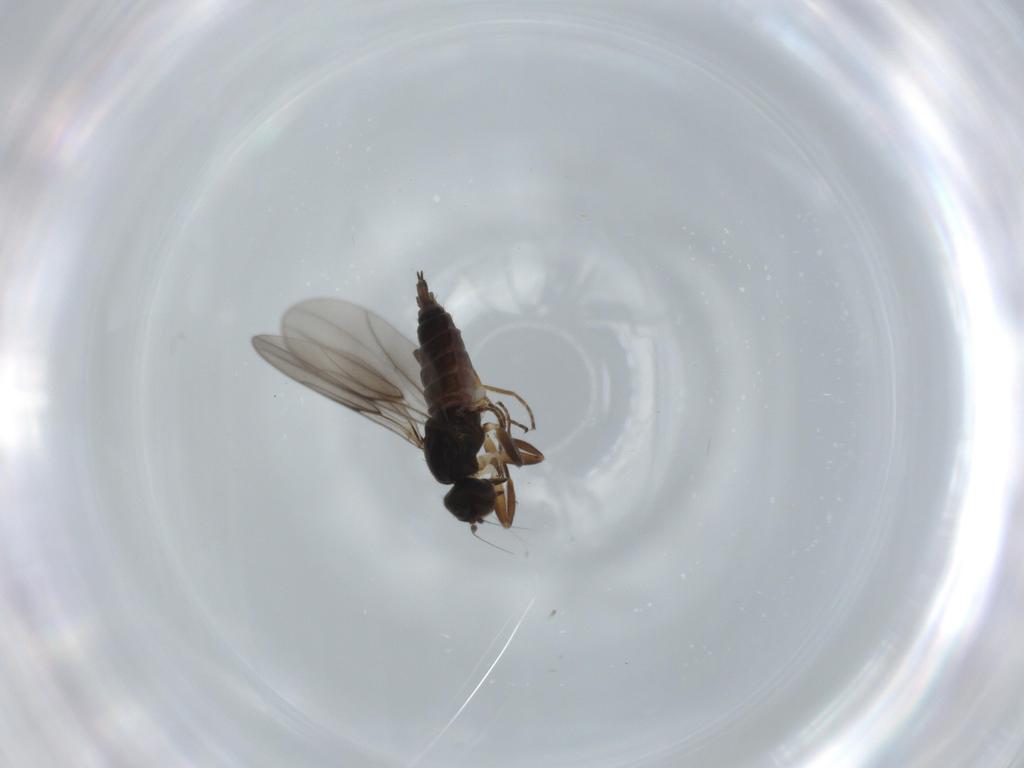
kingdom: Animalia
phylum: Arthropoda
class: Insecta
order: Diptera
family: Hybotidae
